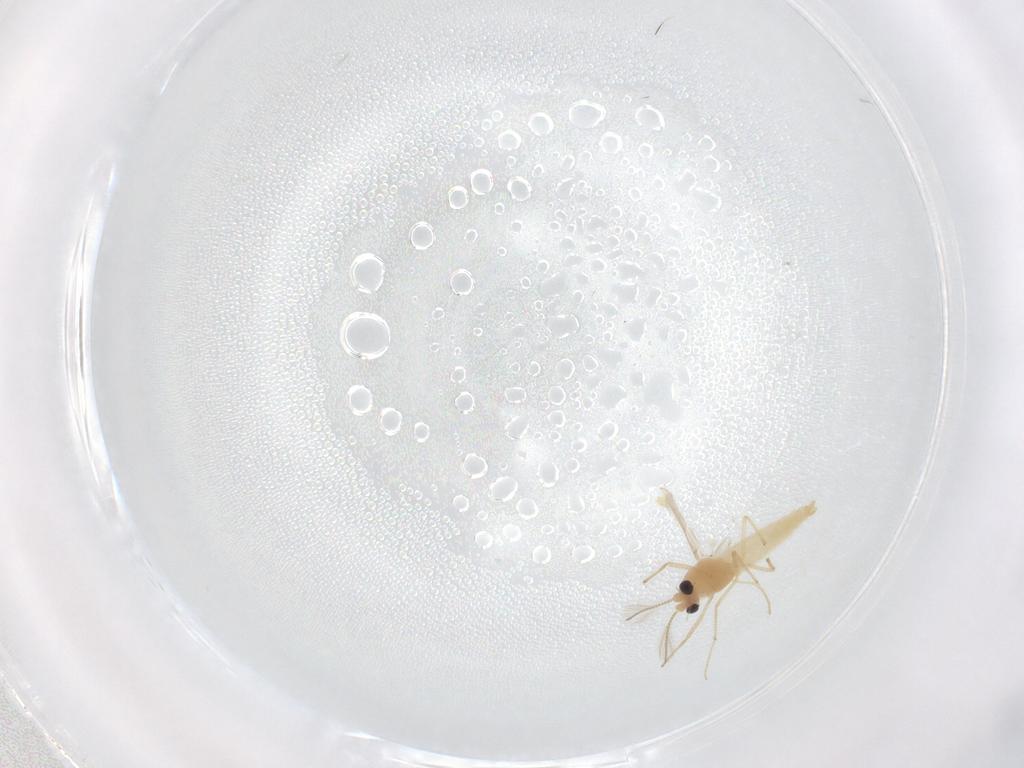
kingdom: Animalia
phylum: Arthropoda
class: Insecta
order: Diptera
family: Chironomidae
